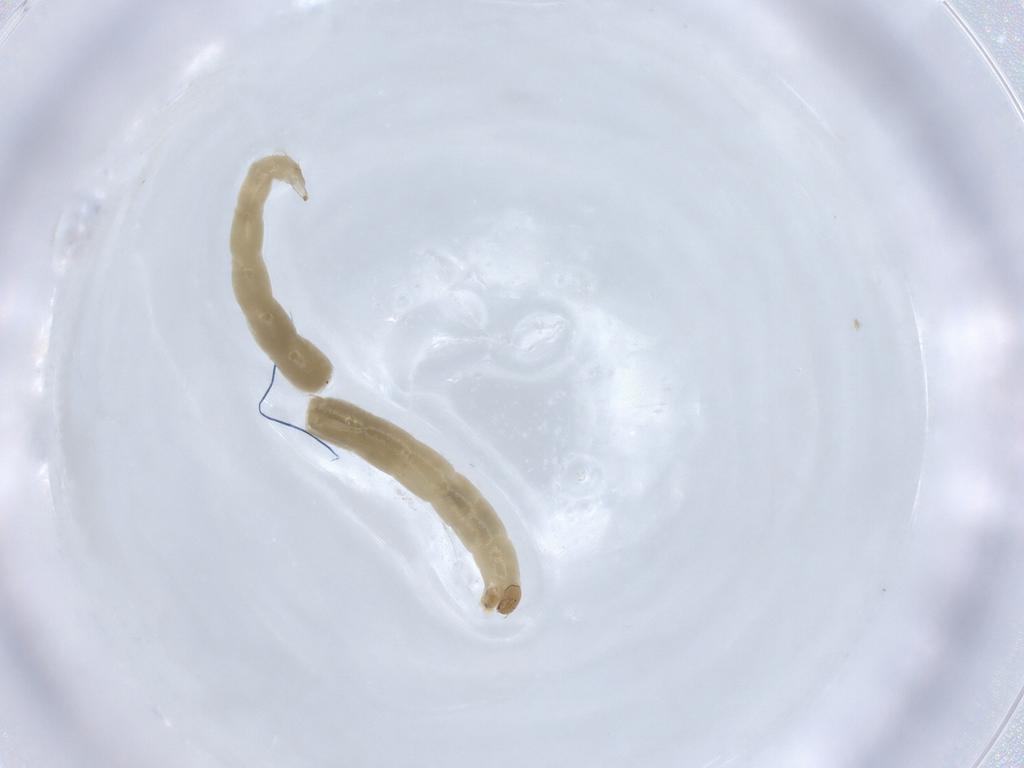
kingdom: Animalia
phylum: Arthropoda
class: Insecta
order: Diptera
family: Chironomidae
